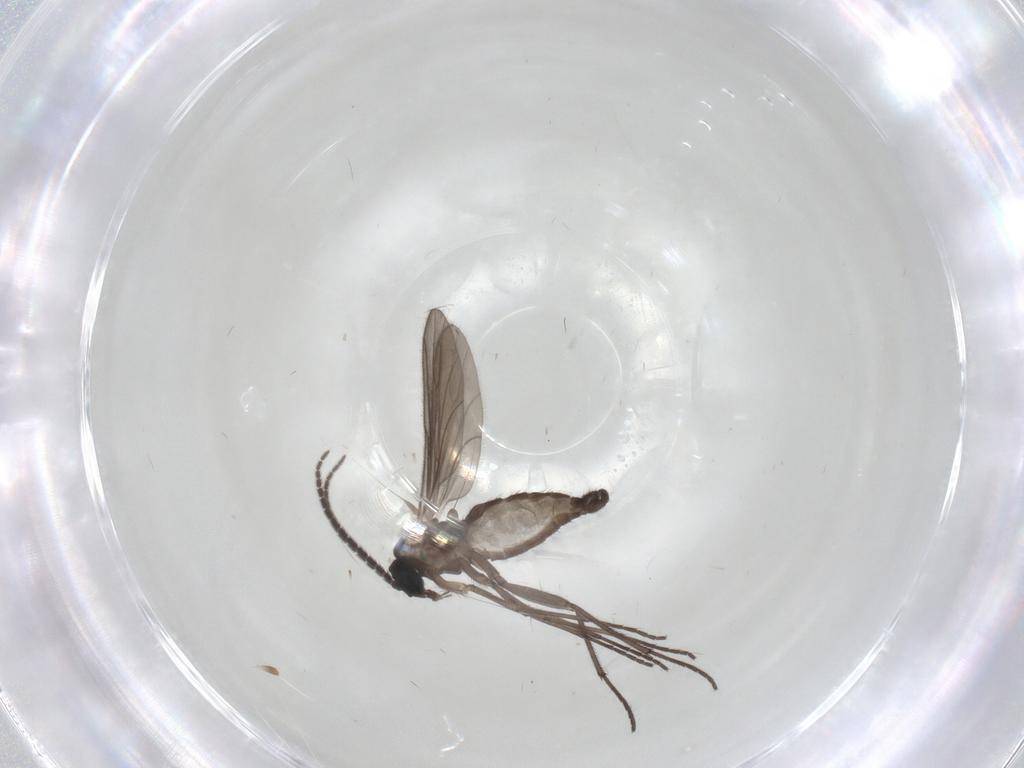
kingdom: Animalia
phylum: Arthropoda
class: Insecta
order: Diptera
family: Sciaridae
